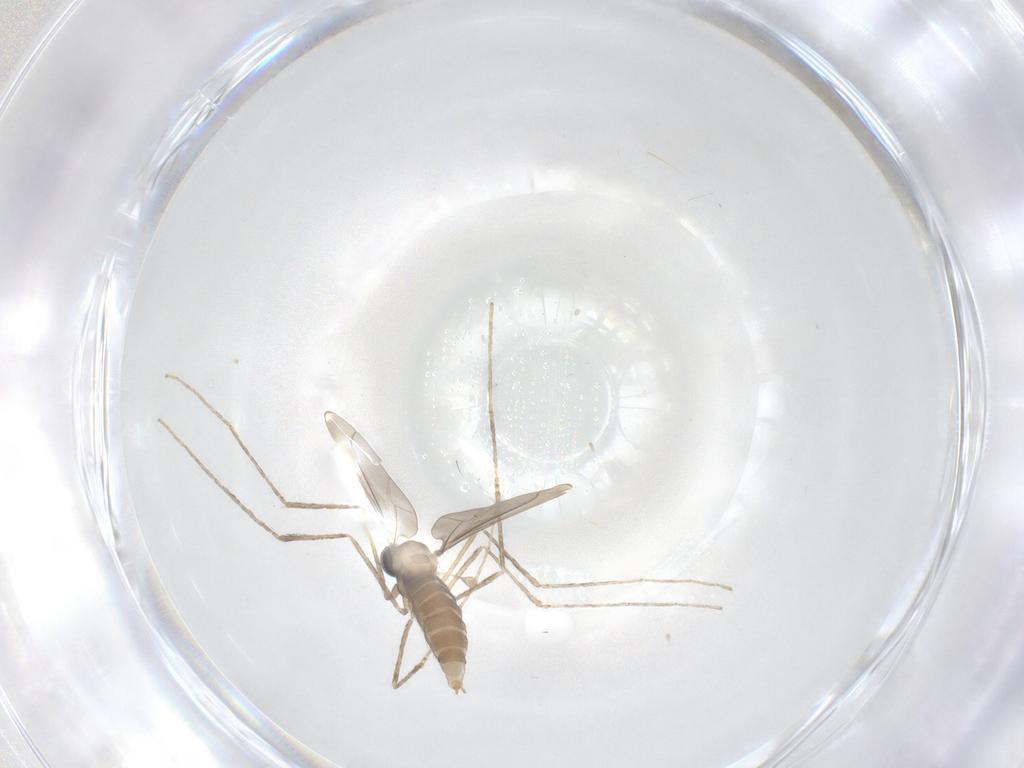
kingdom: Animalia
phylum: Arthropoda
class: Insecta
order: Diptera
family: Cecidomyiidae
